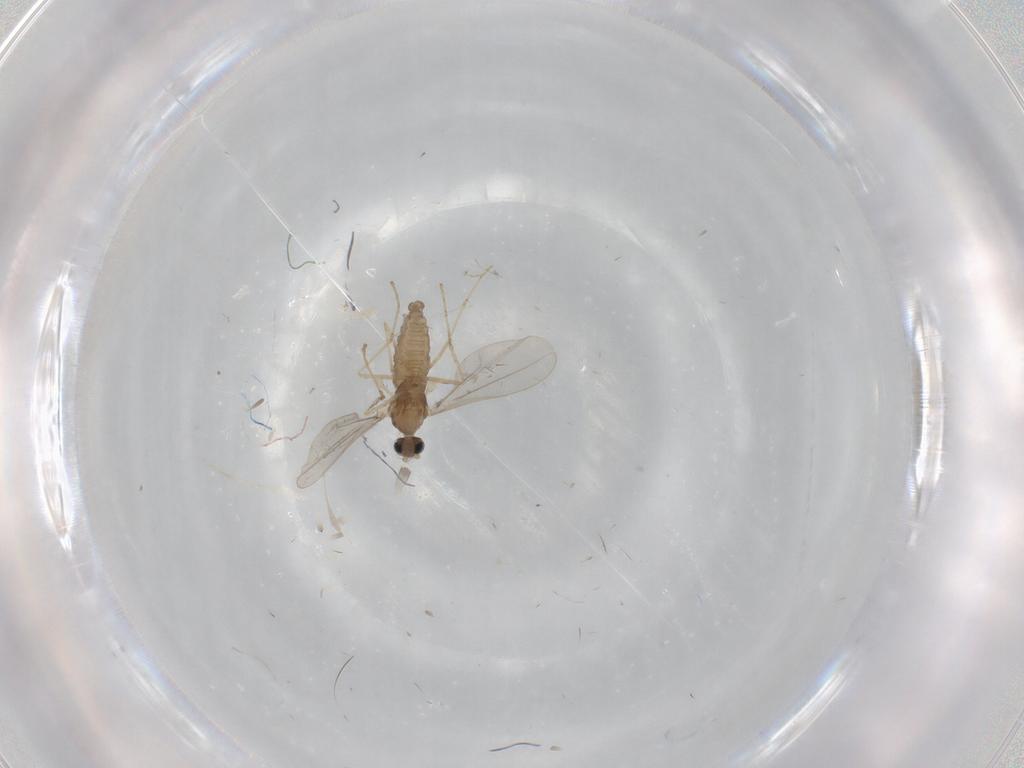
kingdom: Animalia
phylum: Arthropoda
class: Insecta
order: Diptera
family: Cecidomyiidae
